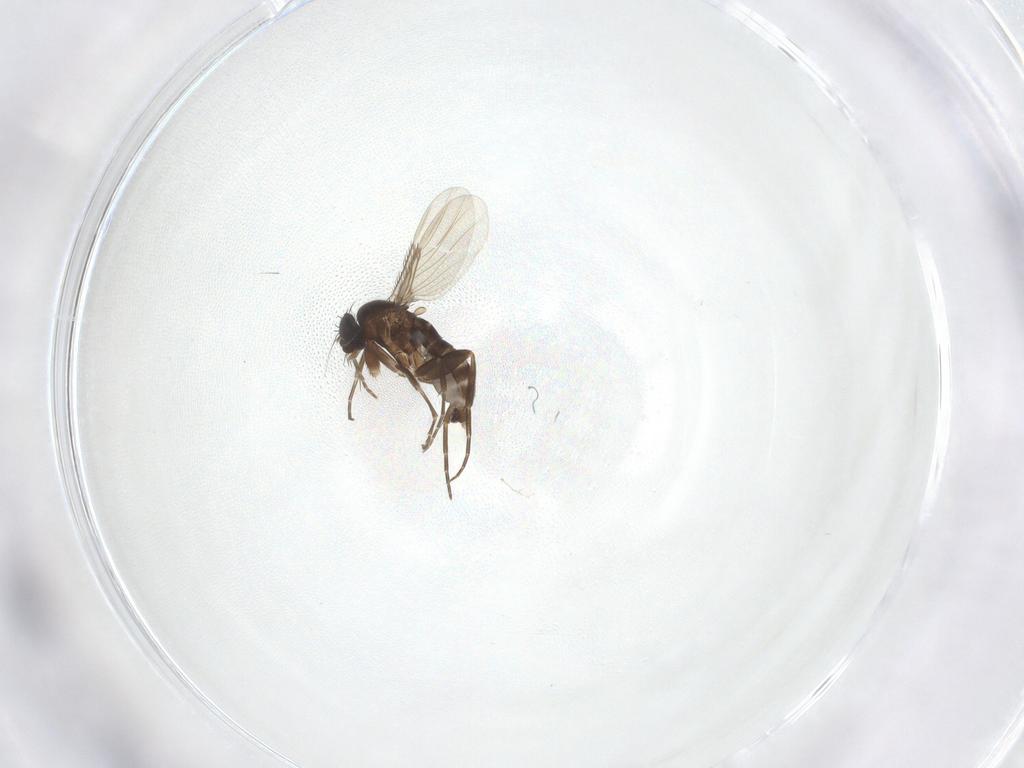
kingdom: Animalia
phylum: Arthropoda
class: Insecta
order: Diptera
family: Phoridae
